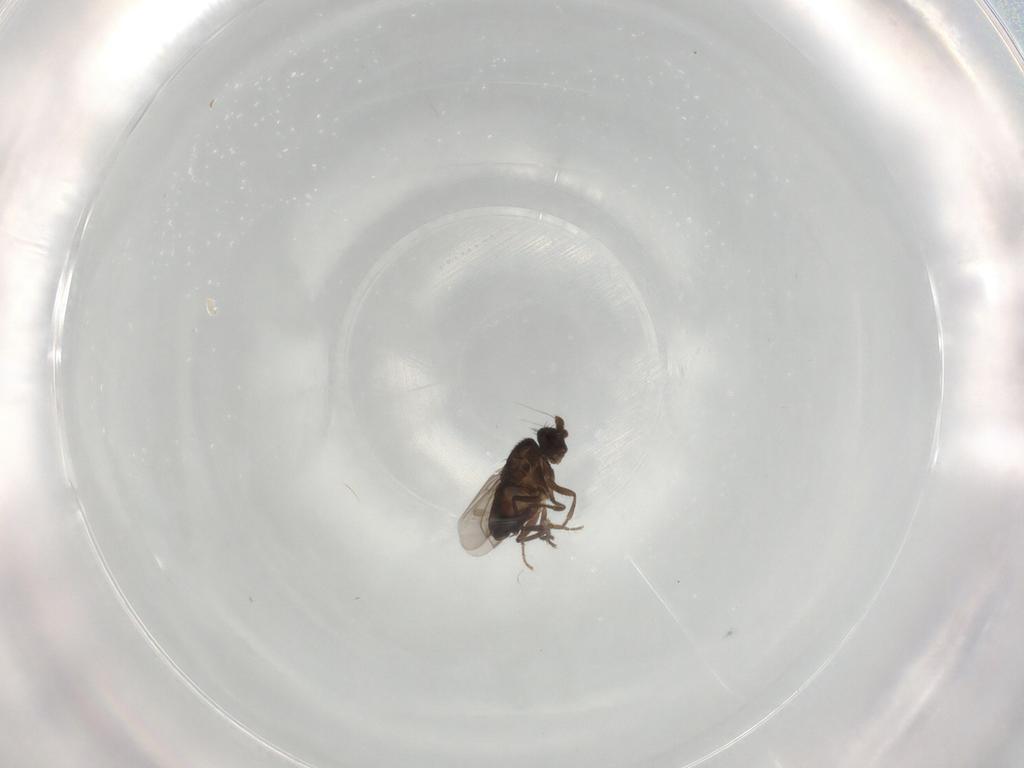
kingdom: Animalia
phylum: Arthropoda
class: Insecta
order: Diptera
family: Sphaeroceridae
